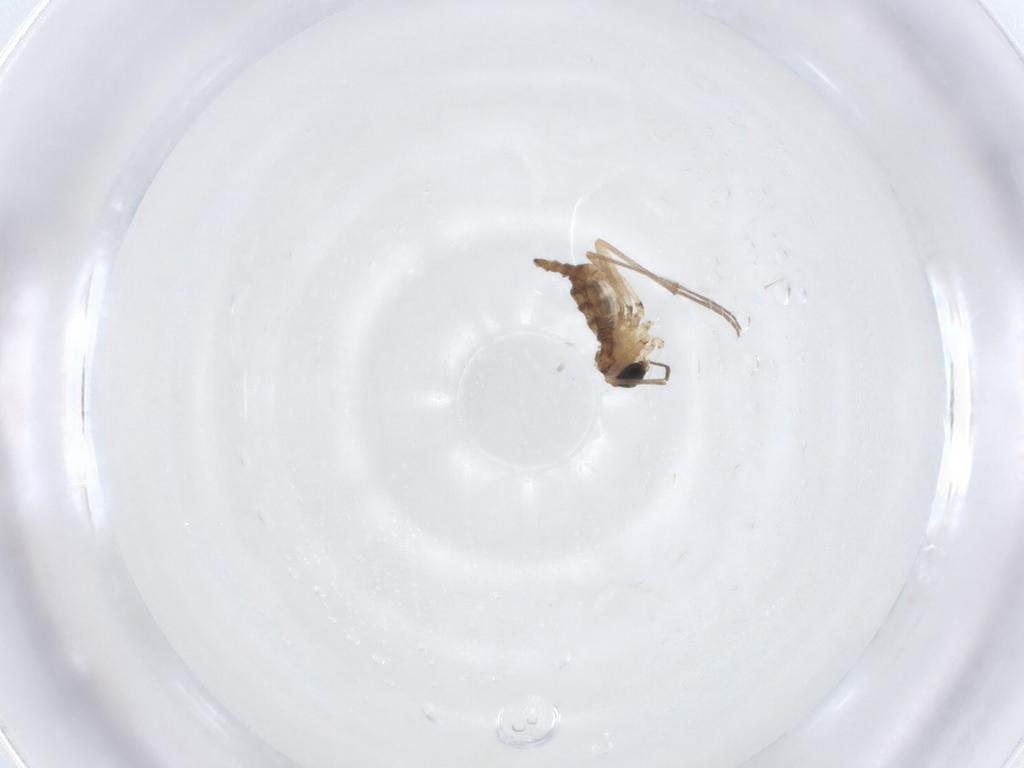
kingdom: Animalia
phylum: Arthropoda
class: Insecta
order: Diptera
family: Sciaridae
